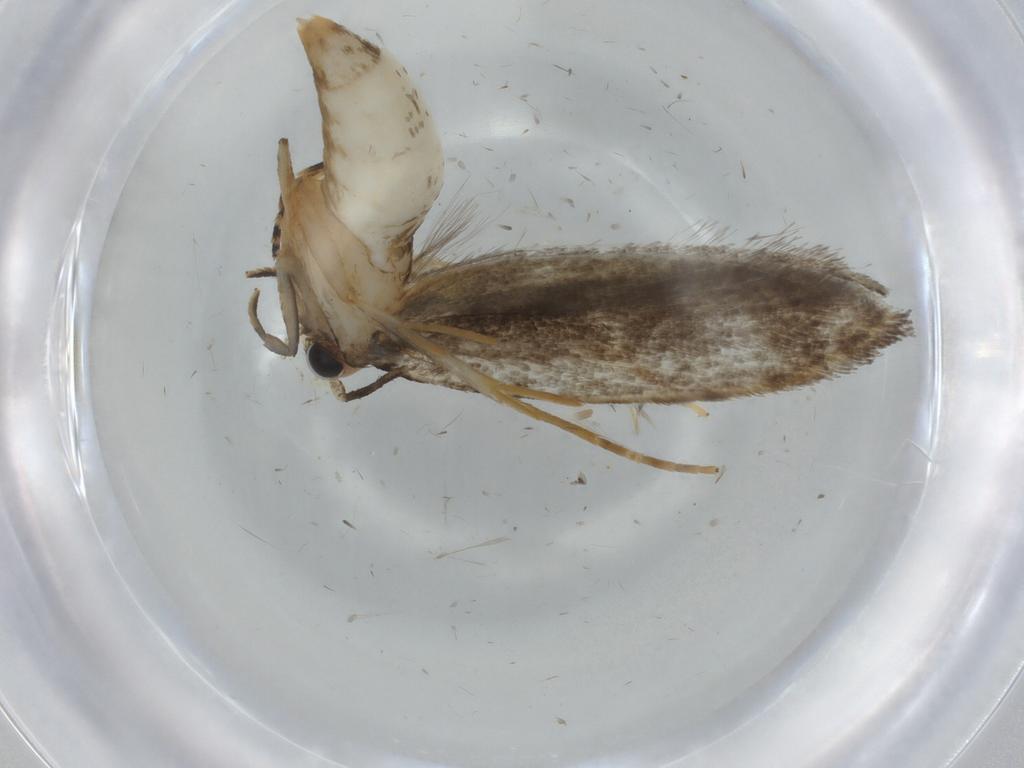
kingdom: Animalia
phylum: Arthropoda
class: Insecta
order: Lepidoptera
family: Tineidae
